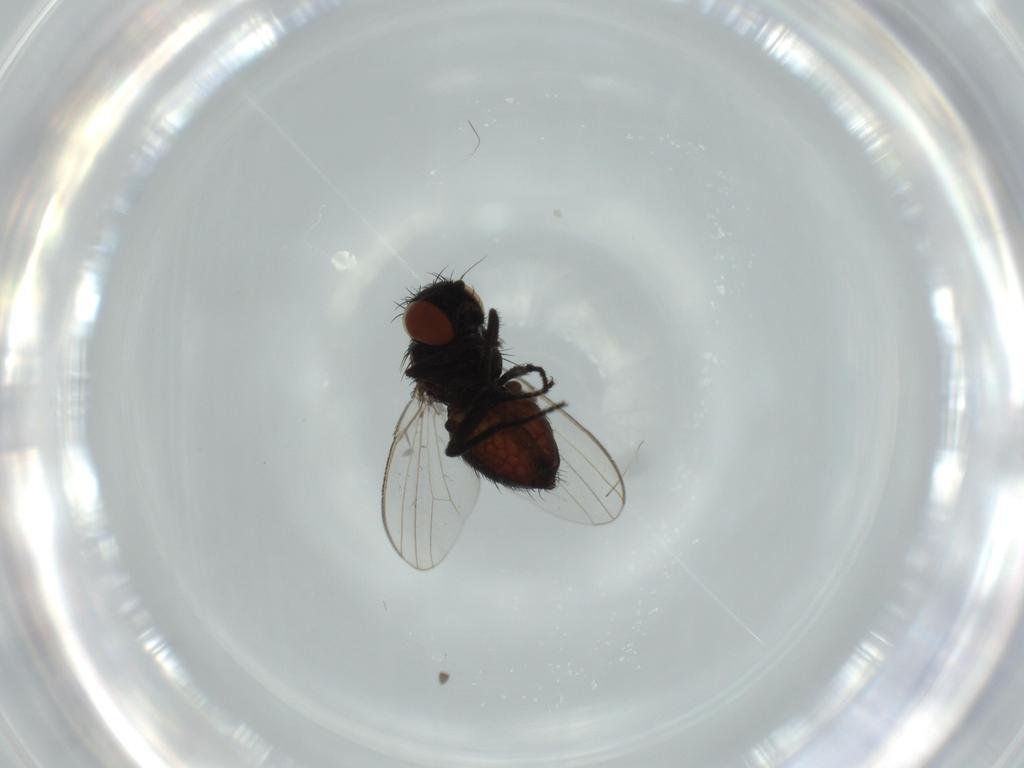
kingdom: Animalia
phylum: Arthropoda
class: Insecta
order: Diptera
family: Milichiidae
